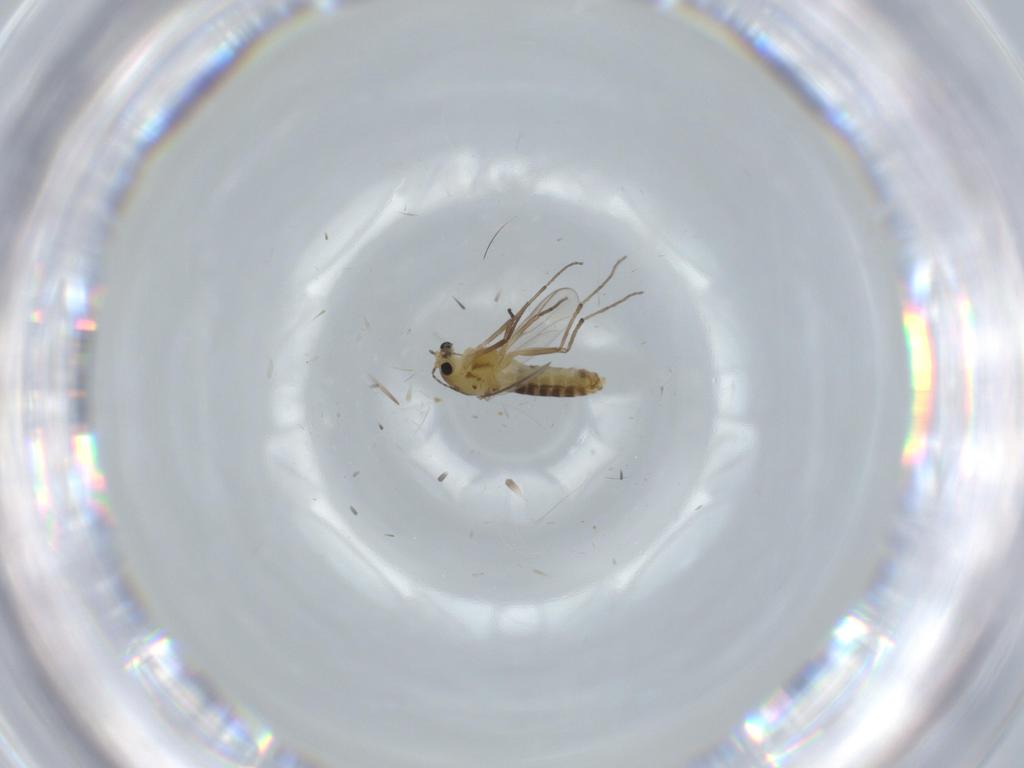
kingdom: Animalia
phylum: Arthropoda
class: Insecta
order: Diptera
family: Chironomidae
